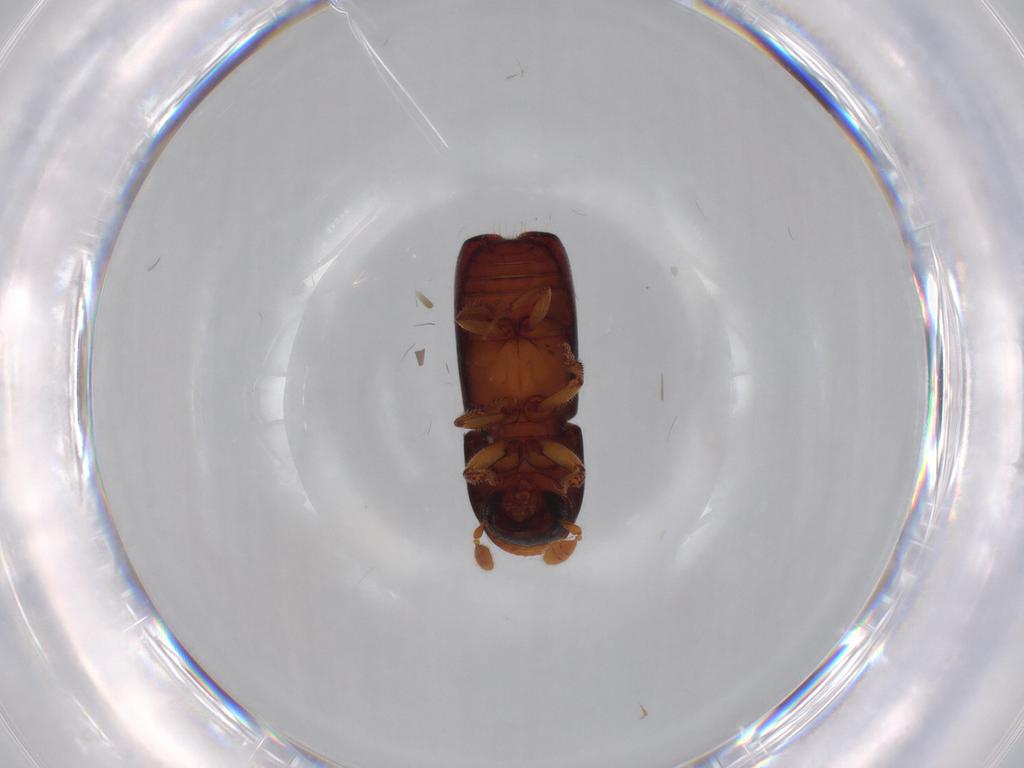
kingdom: Animalia
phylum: Arthropoda
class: Insecta
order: Coleoptera
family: Curculionidae
